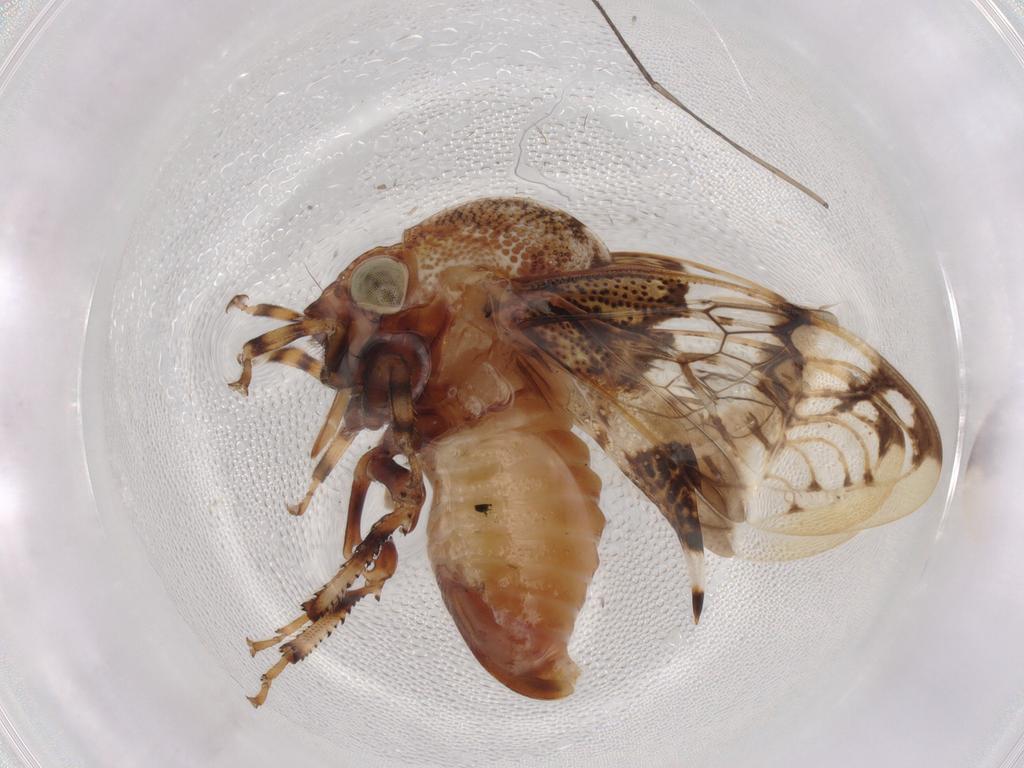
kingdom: Animalia
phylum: Arthropoda
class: Insecta
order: Hemiptera
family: Membracidae
